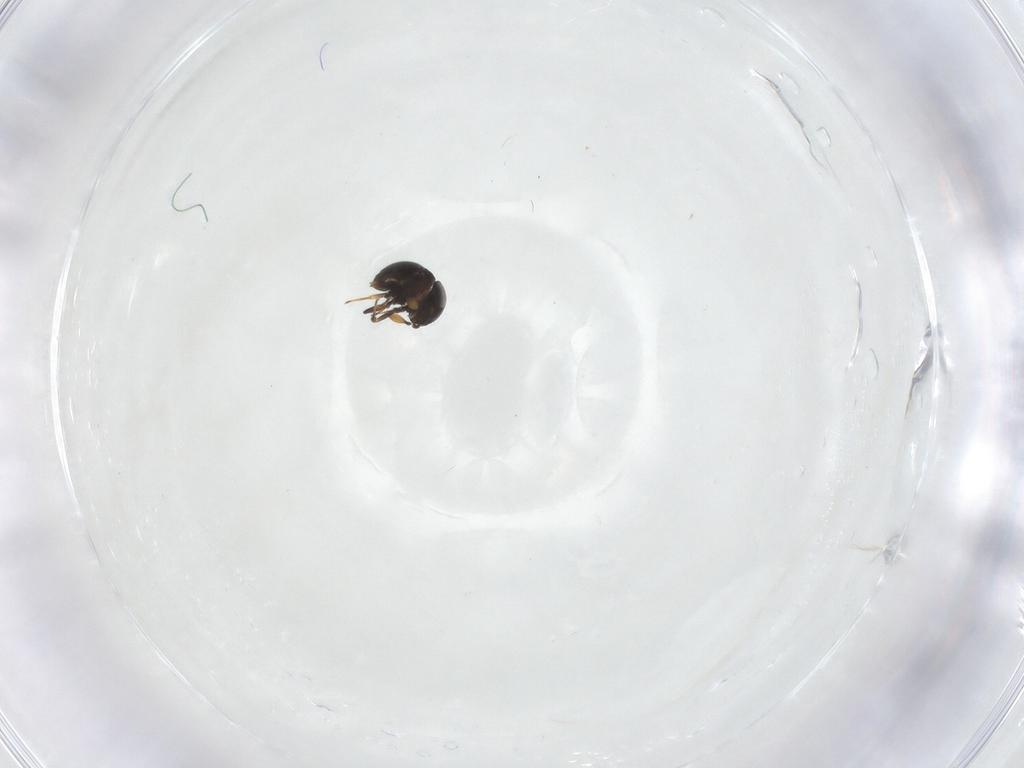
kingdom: Animalia
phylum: Arthropoda
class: Insecta
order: Hymenoptera
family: Scelionidae
